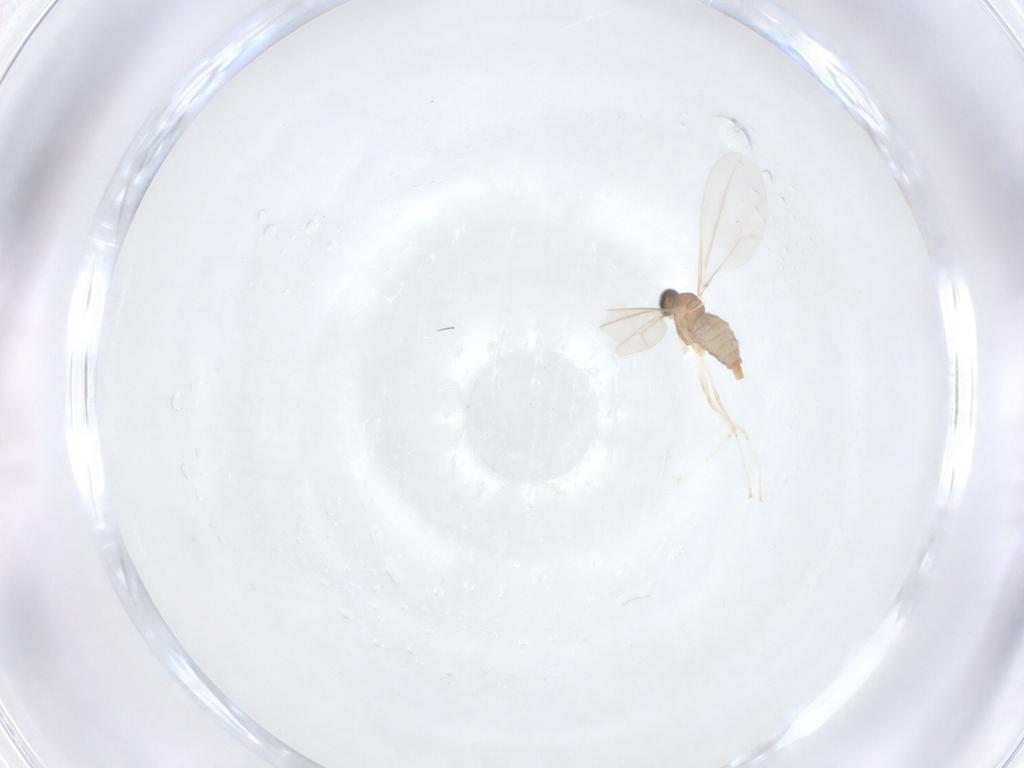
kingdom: Animalia
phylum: Arthropoda
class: Insecta
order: Diptera
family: Cecidomyiidae
